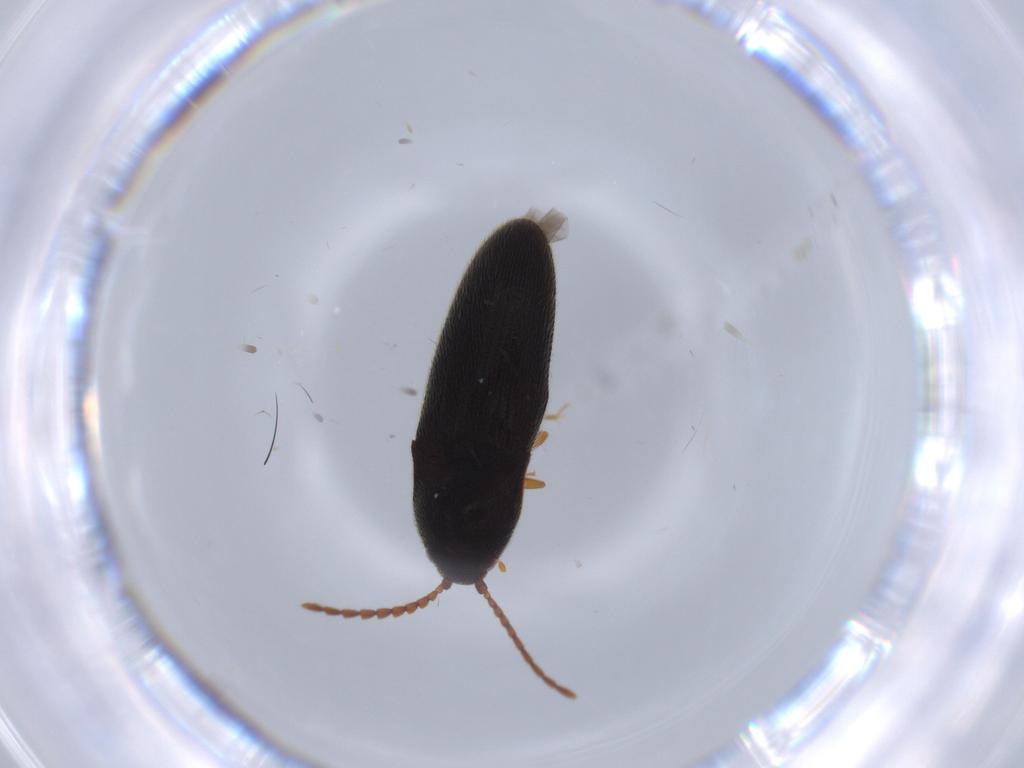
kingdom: Animalia
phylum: Arthropoda
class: Insecta
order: Coleoptera
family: Elateridae
